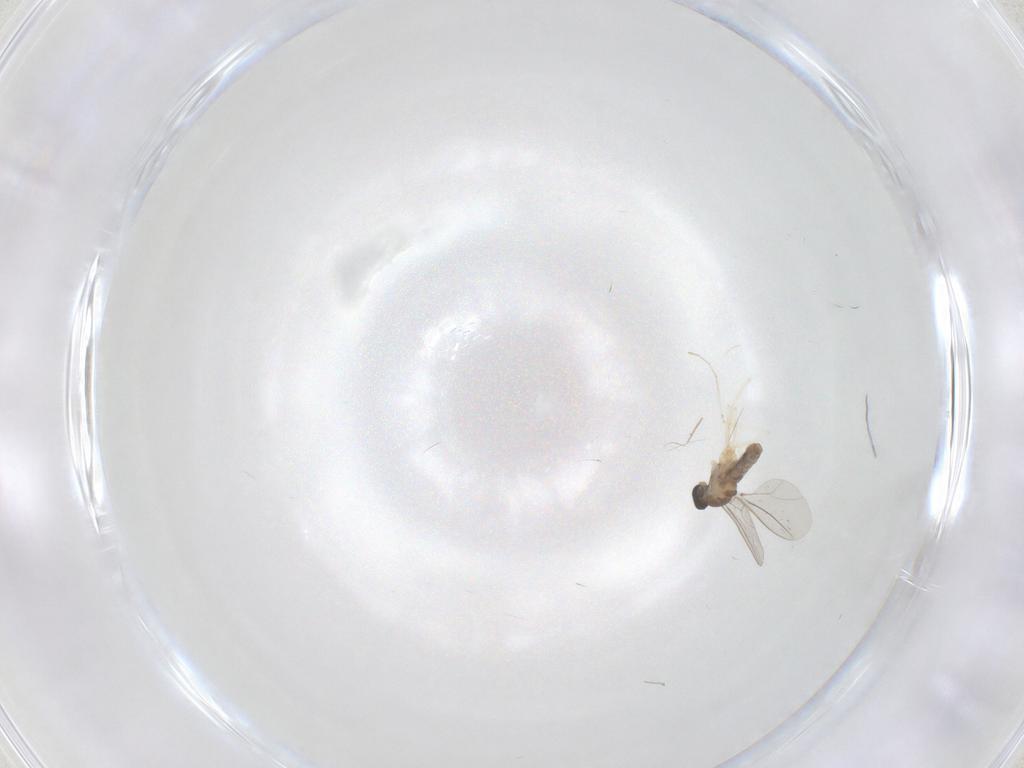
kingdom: Animalia
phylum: Arthropoda
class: Insecta
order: Diptera
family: Cecidomyiidae
